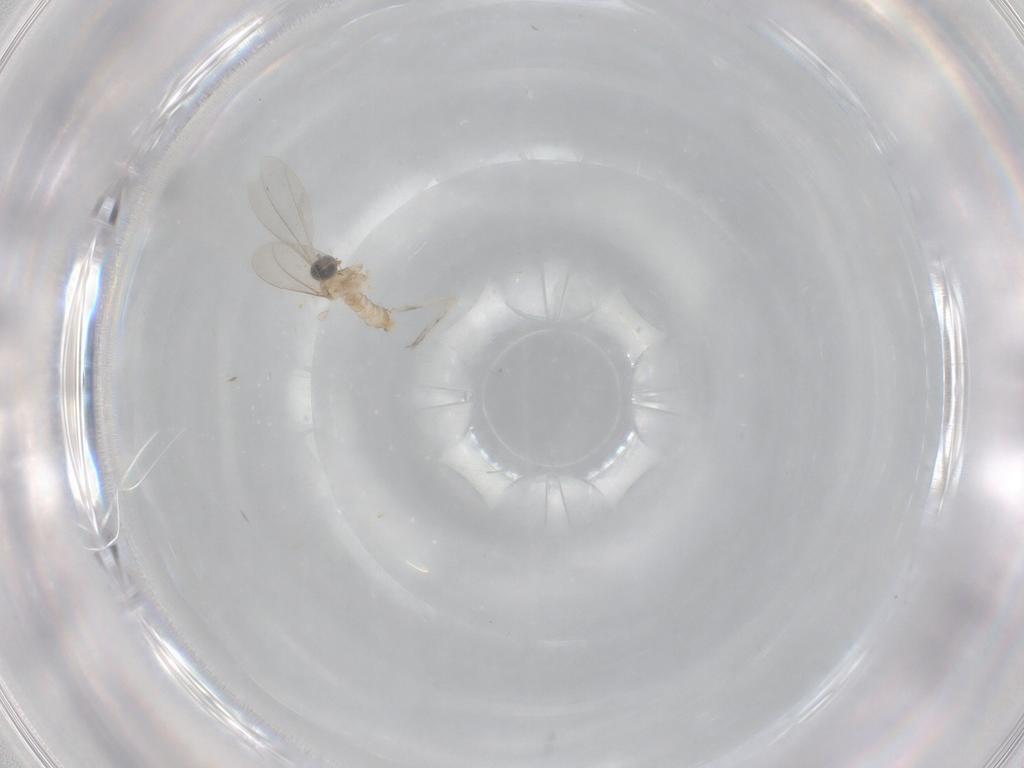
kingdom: Animalia
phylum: Arthropoda
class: Insecta
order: Diptera
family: Cecidomyiidae
